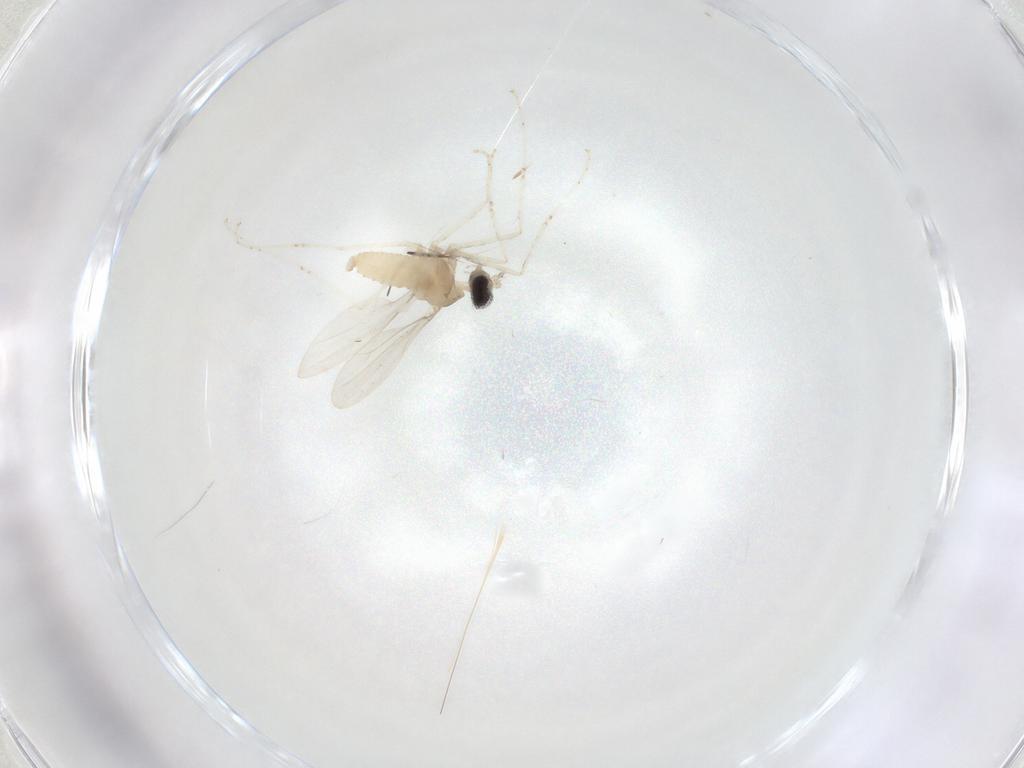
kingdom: Animalia
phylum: Arthropoda
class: Insecta
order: Diptera
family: Cecidomyiidae
